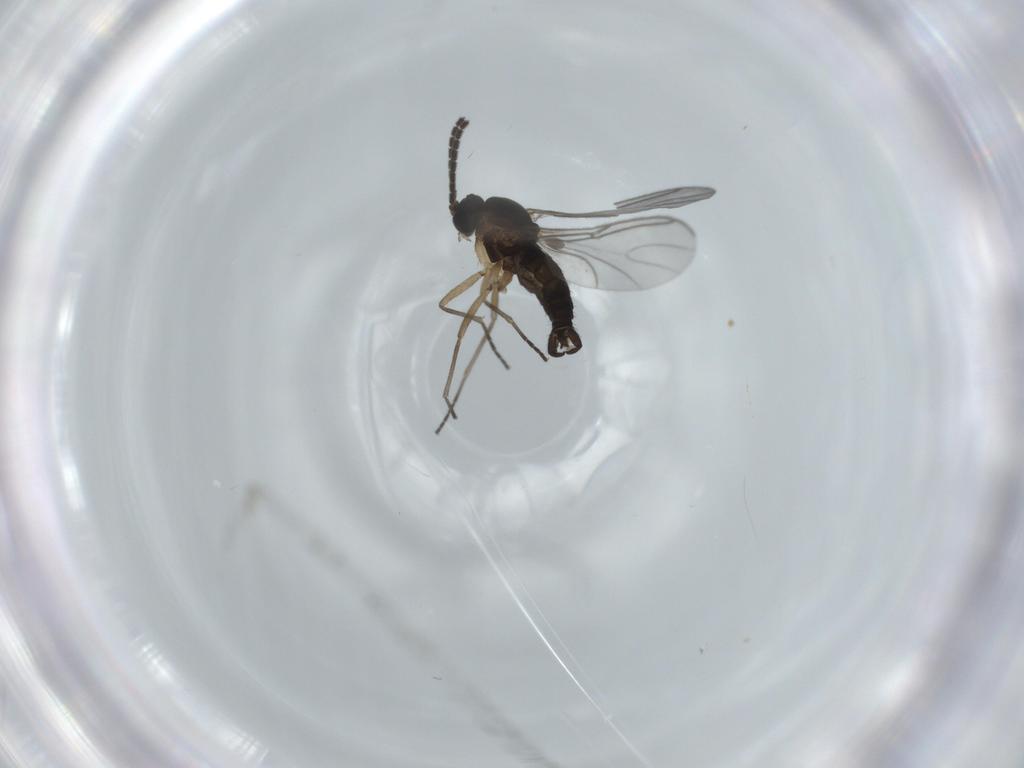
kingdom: Animalia
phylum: Arthropoda
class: Insecta
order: Diptera
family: Sciaridae
